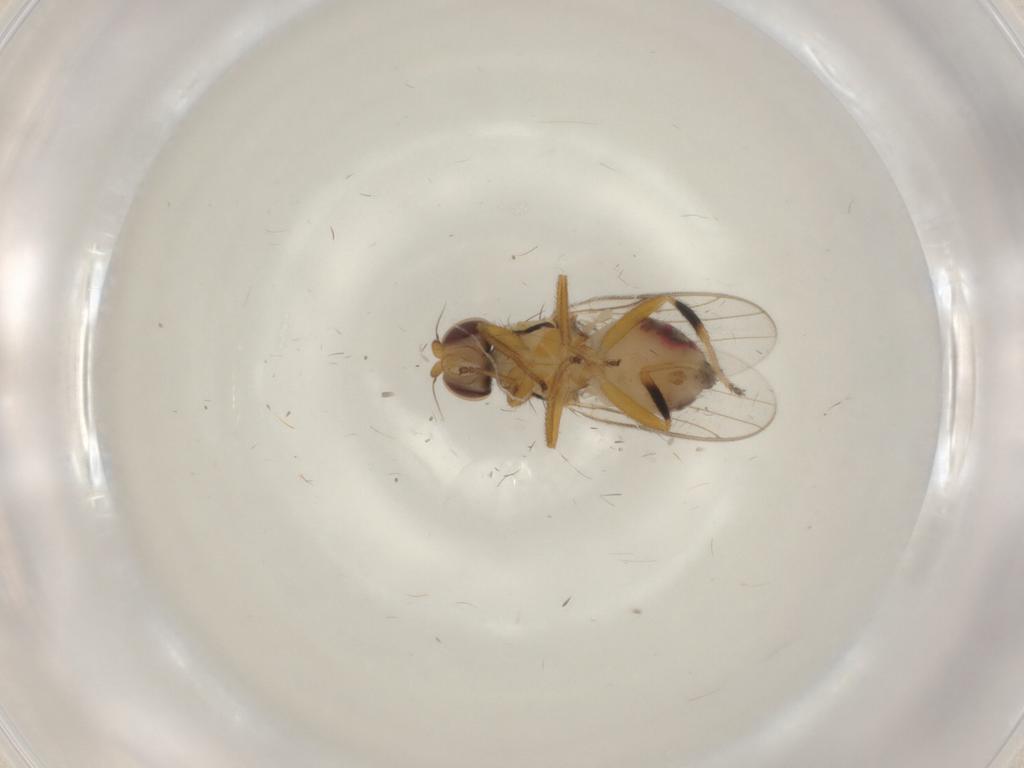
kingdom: Animalia
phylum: Arthropoda
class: Insecta
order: Diptera
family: Chloropidae
